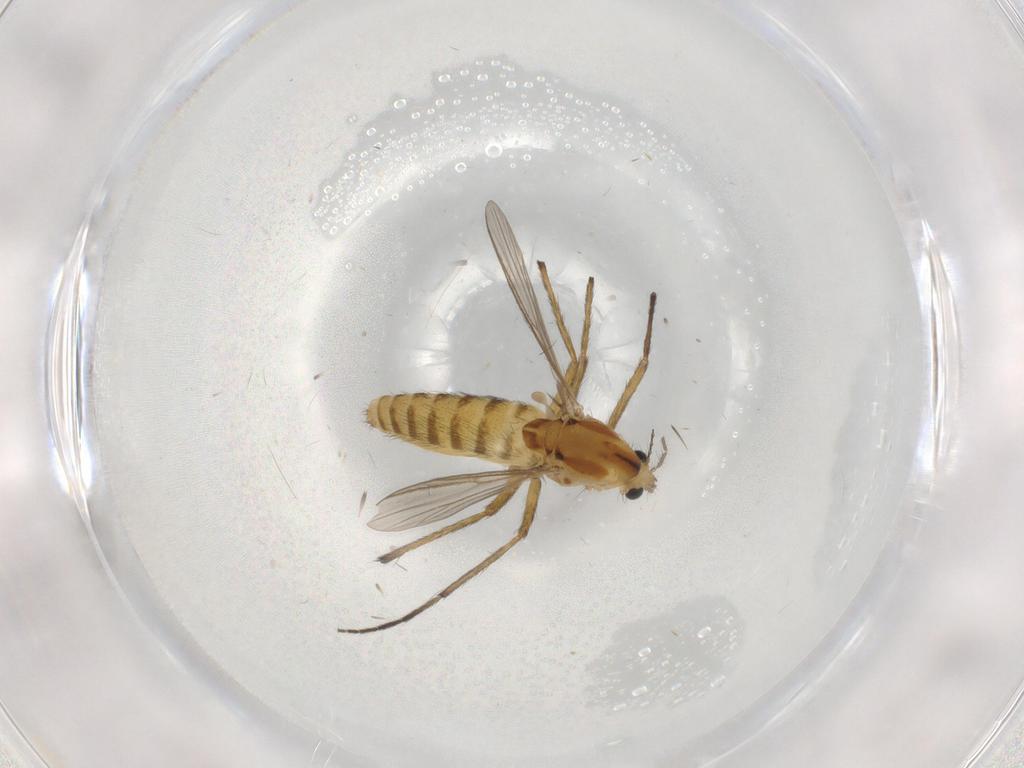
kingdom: Animalia
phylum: Arthropoda
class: Insecta
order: Diptera
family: Chironomidae
